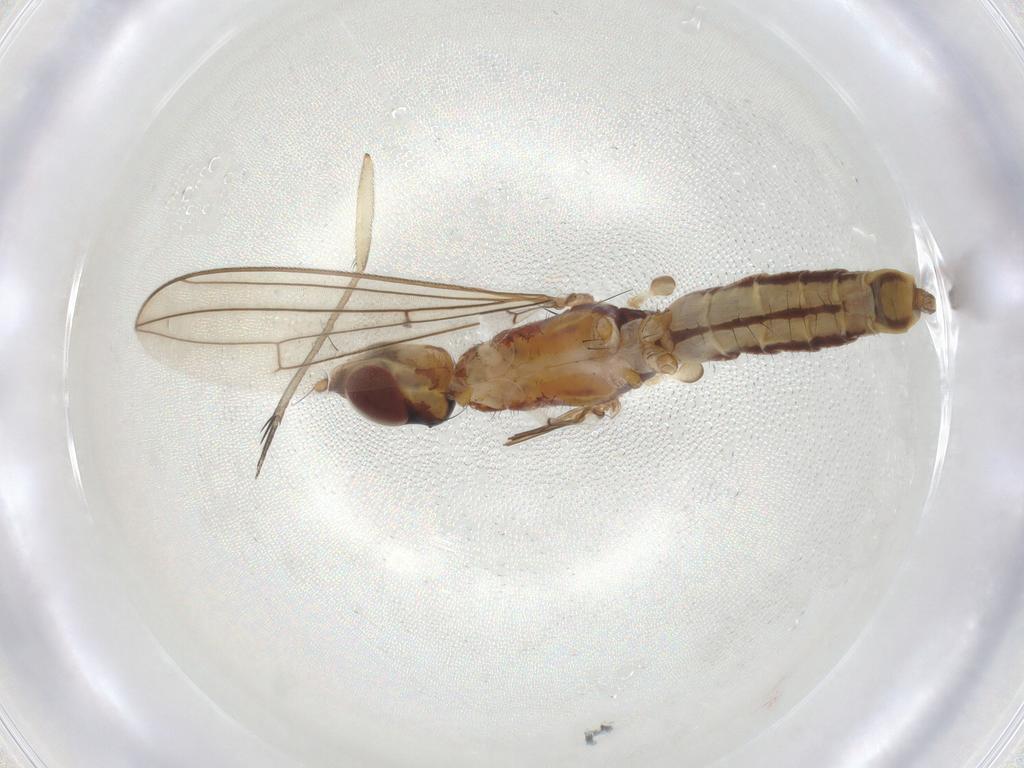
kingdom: Animalia
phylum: Arthropoda
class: Insecta
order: Diptera
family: Micropezidae
